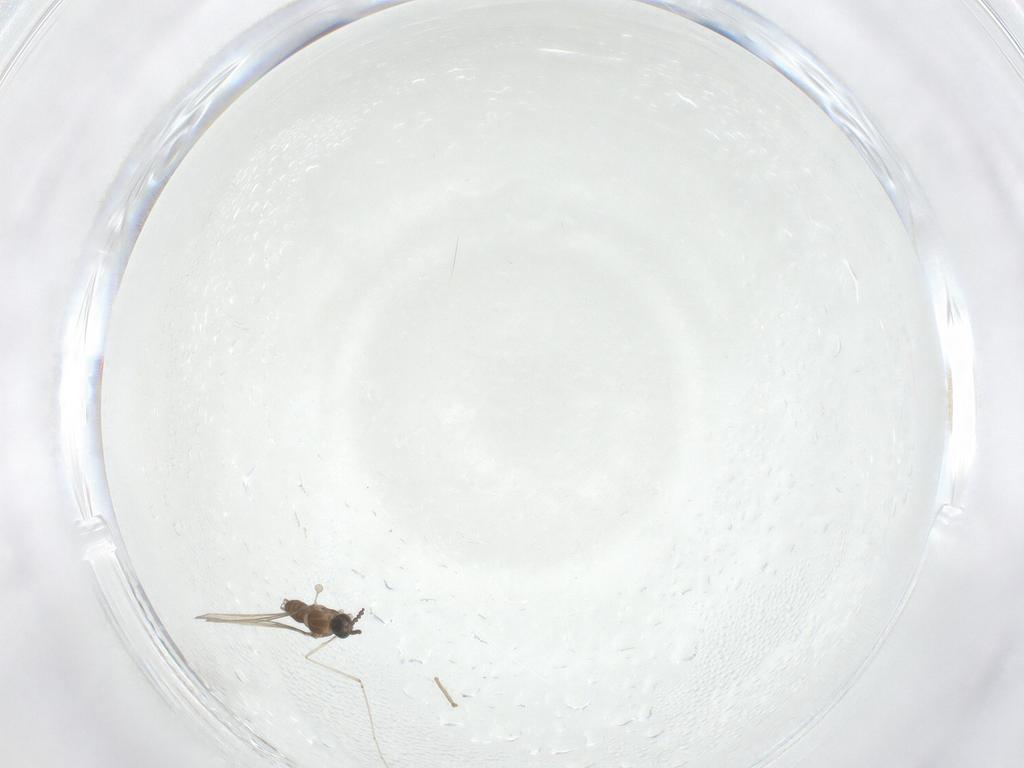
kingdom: Animalia
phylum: Arthropoda
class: Insecta
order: Diptera
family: Cecidomyiidae
